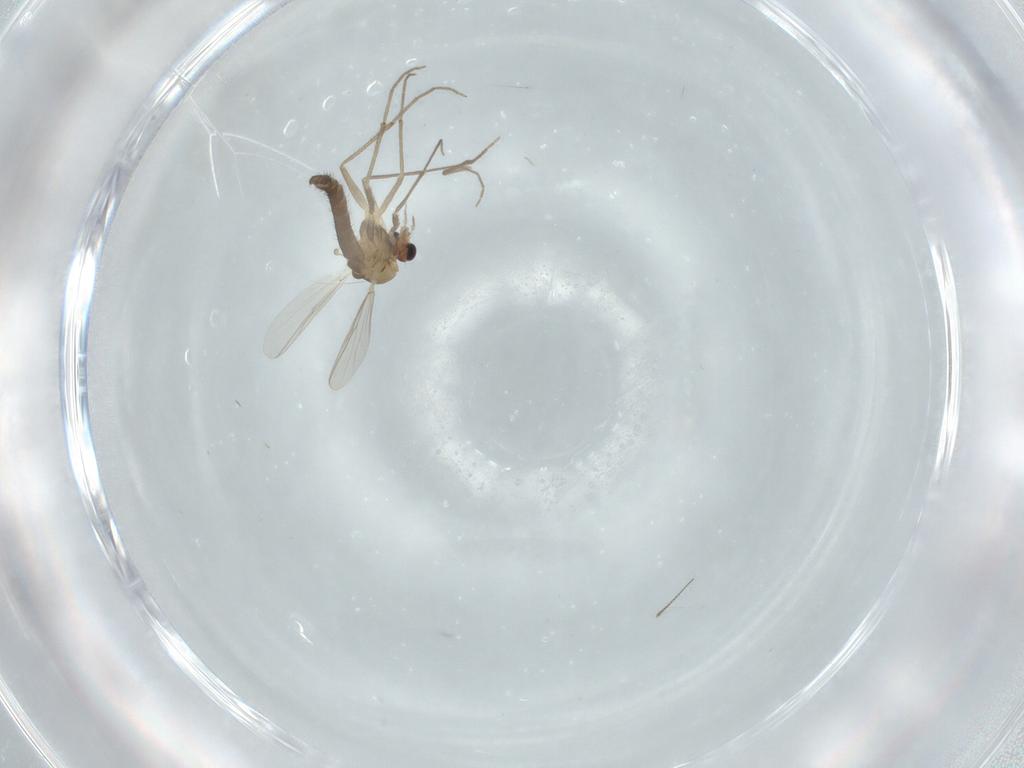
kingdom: Animalia
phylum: Arthropoda
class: Insecta
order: Diptera
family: Chironomidae
